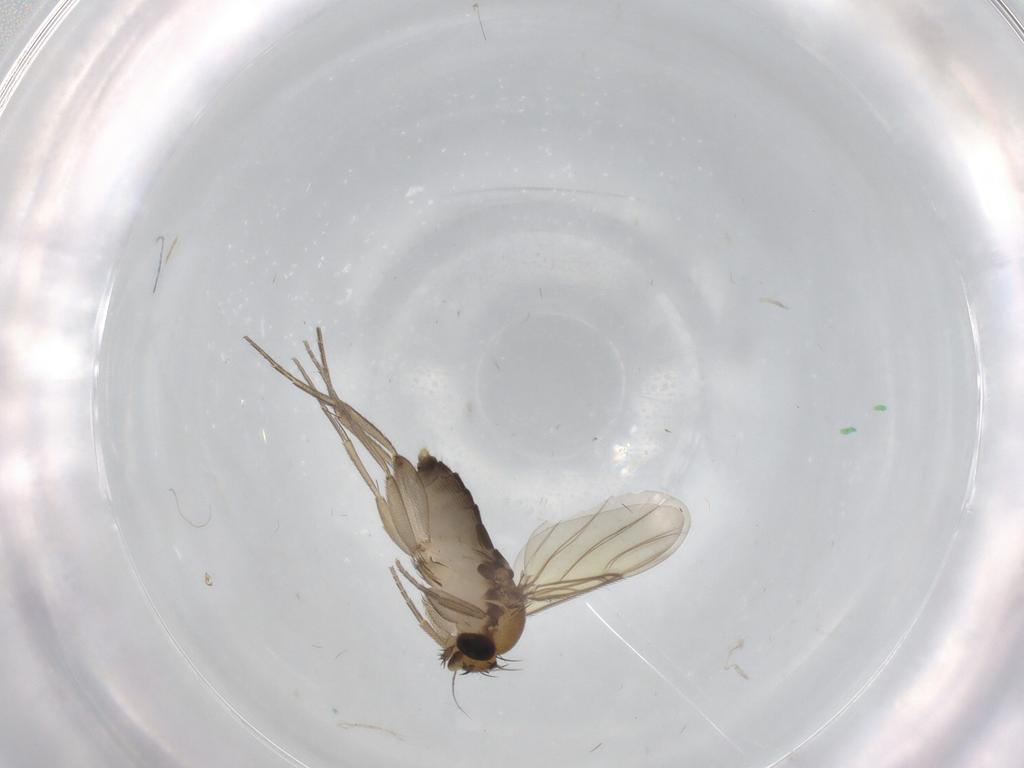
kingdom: Animalia
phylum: Arthropoda
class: Insecta
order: Diptera
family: Chironomidae
